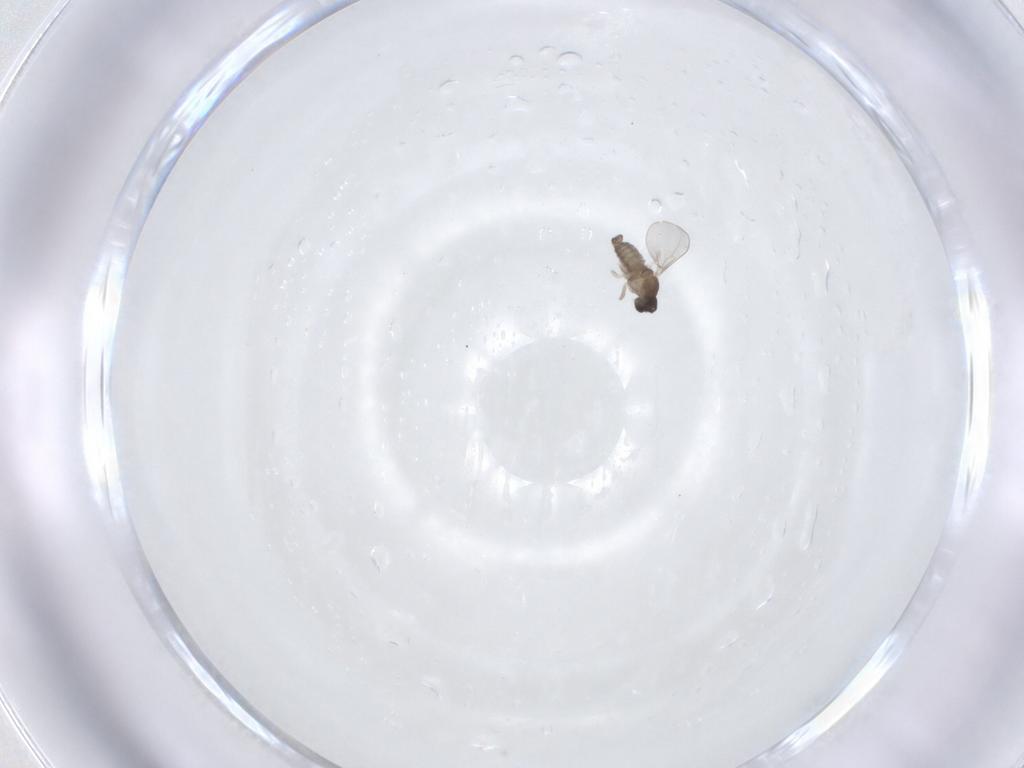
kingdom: Animalia
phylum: Arthropoda
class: Insecta
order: Diptera
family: Cecidomyiidae
